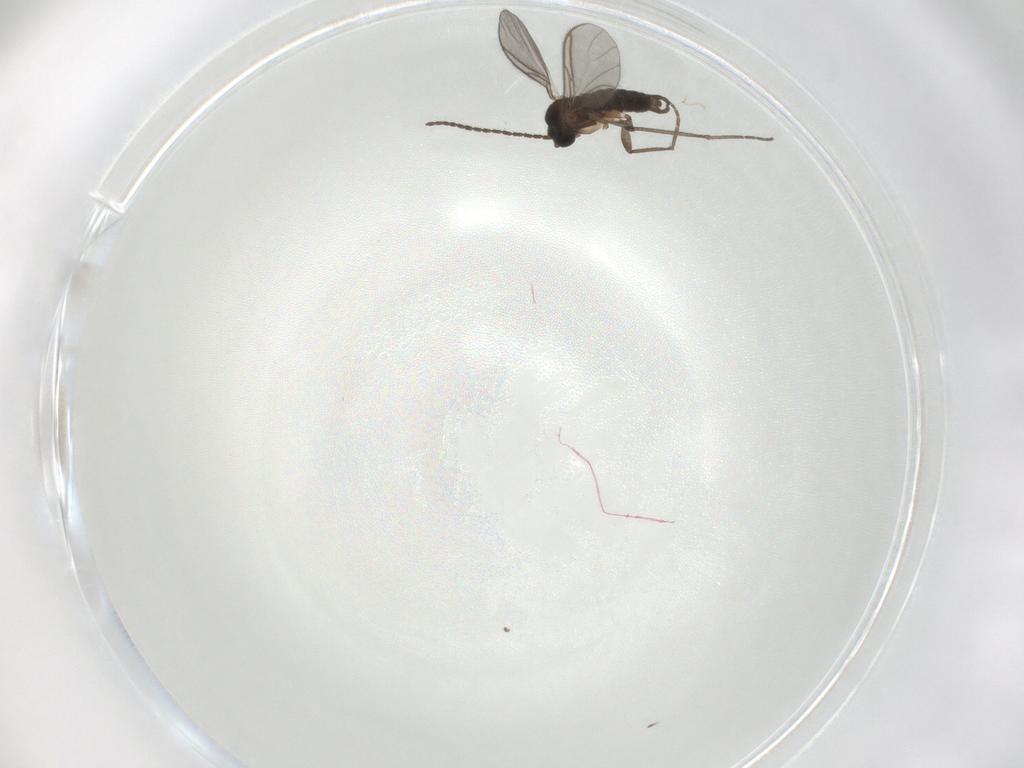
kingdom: Animalia
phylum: Arthropoda
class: Insecta
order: Diptera
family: Sciaridae
